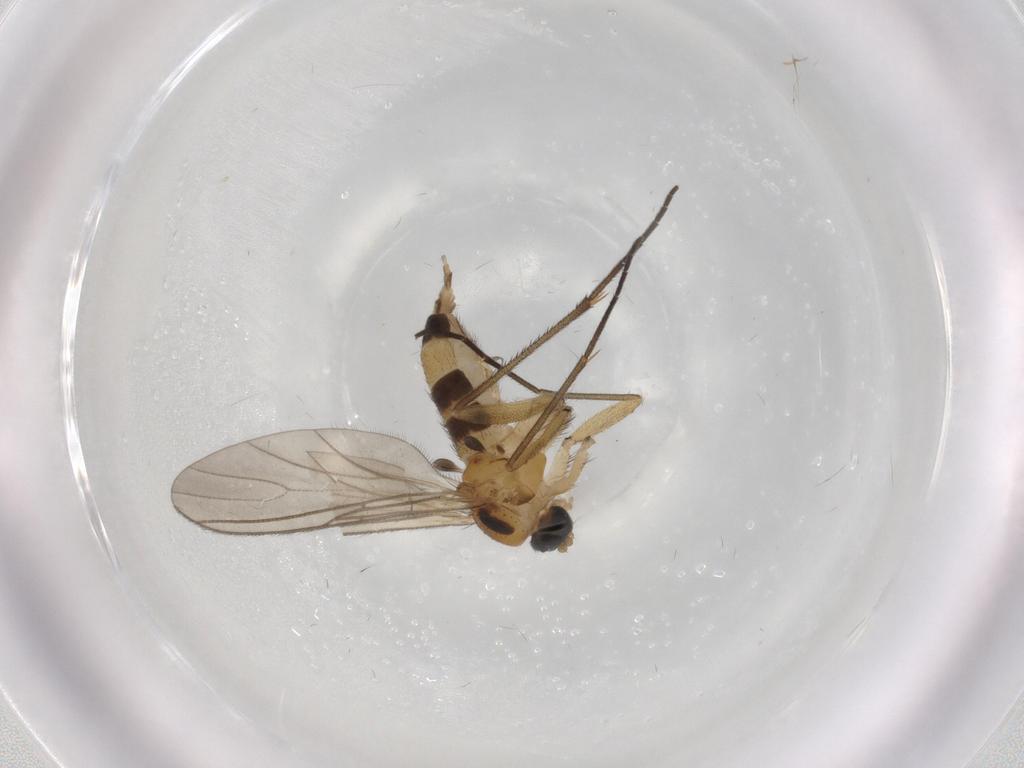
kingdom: Animalia
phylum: Arthropoda
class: Insecta
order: Diptera
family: Sciaridae
